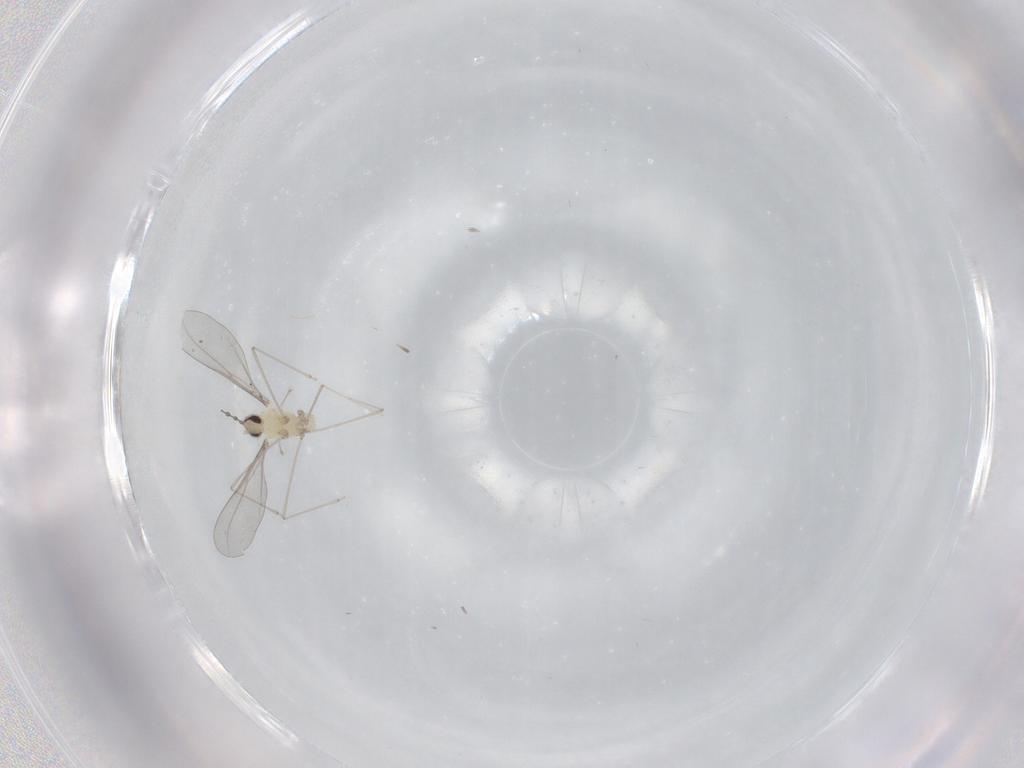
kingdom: Animalia
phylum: Arthropoda
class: Insecta
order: Diptera
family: Cecidomyiidae
